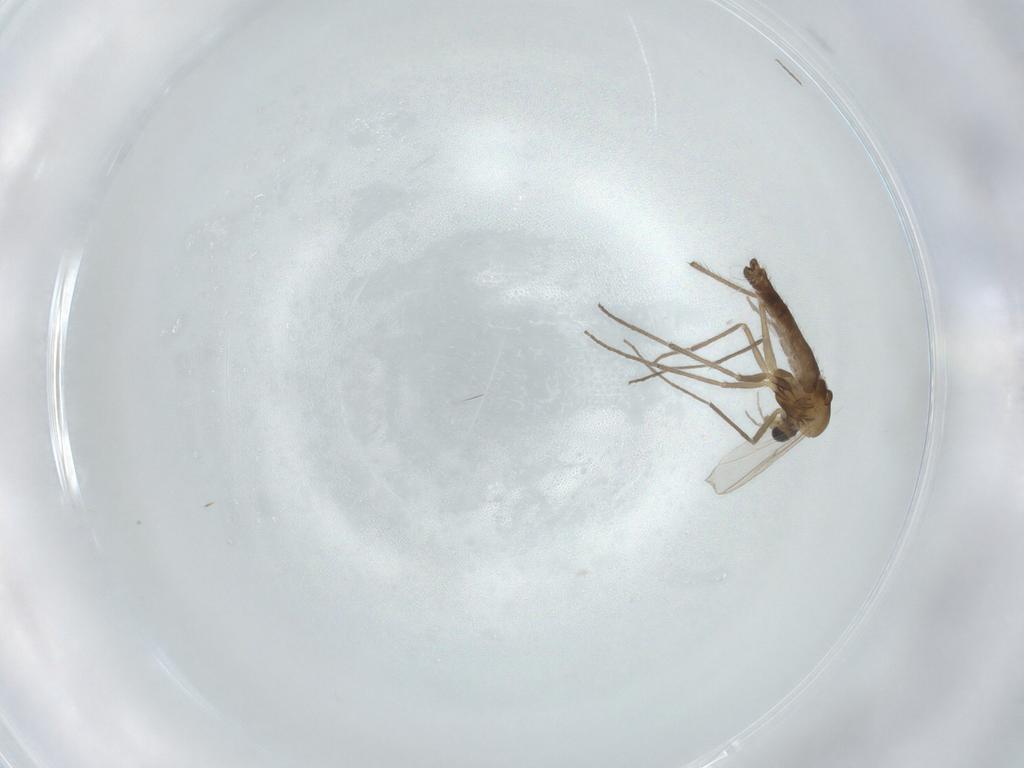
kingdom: Animalia
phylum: Arthropoda
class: Insecta
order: Diptera
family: Chironomidae
